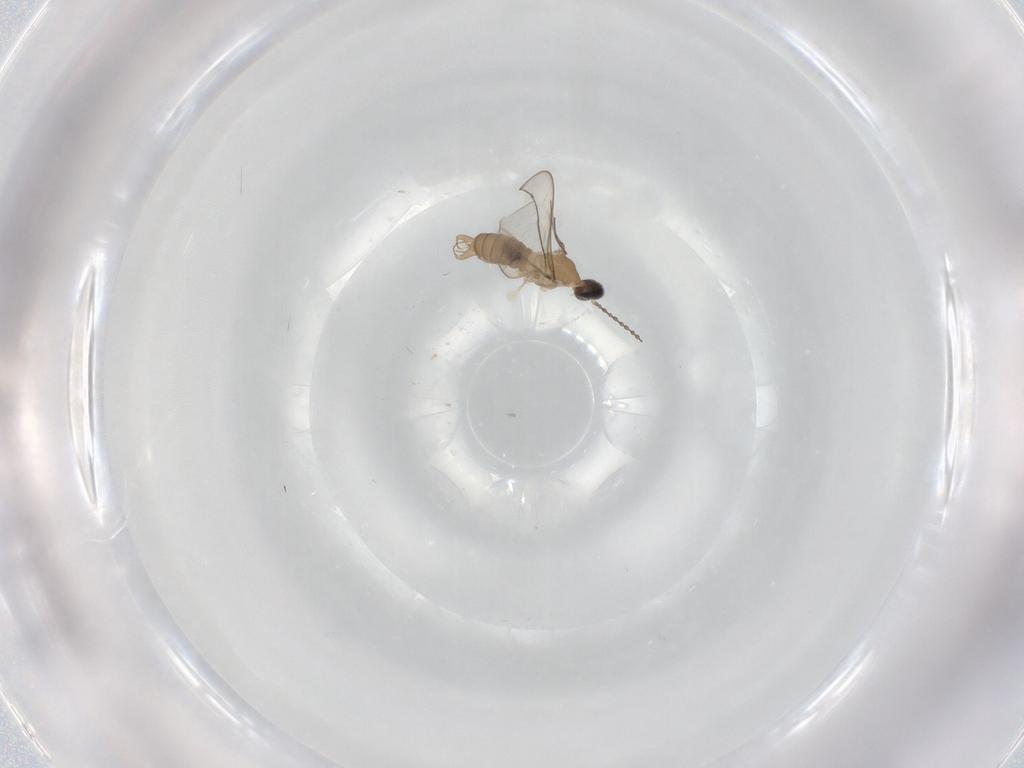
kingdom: Animalia
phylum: Arthropoda
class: Insecta
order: Diptera
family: Cecidomyiidae
